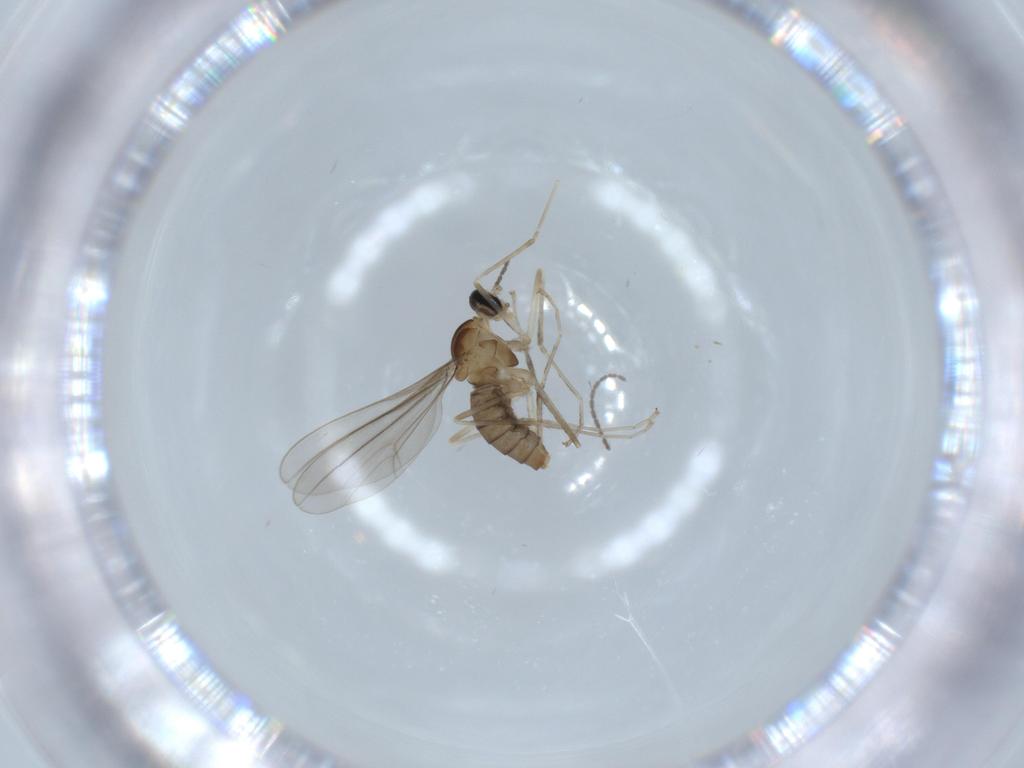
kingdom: Animalia
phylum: Arthropoda
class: Insecta
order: Diptera
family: Cecidomyiidae
